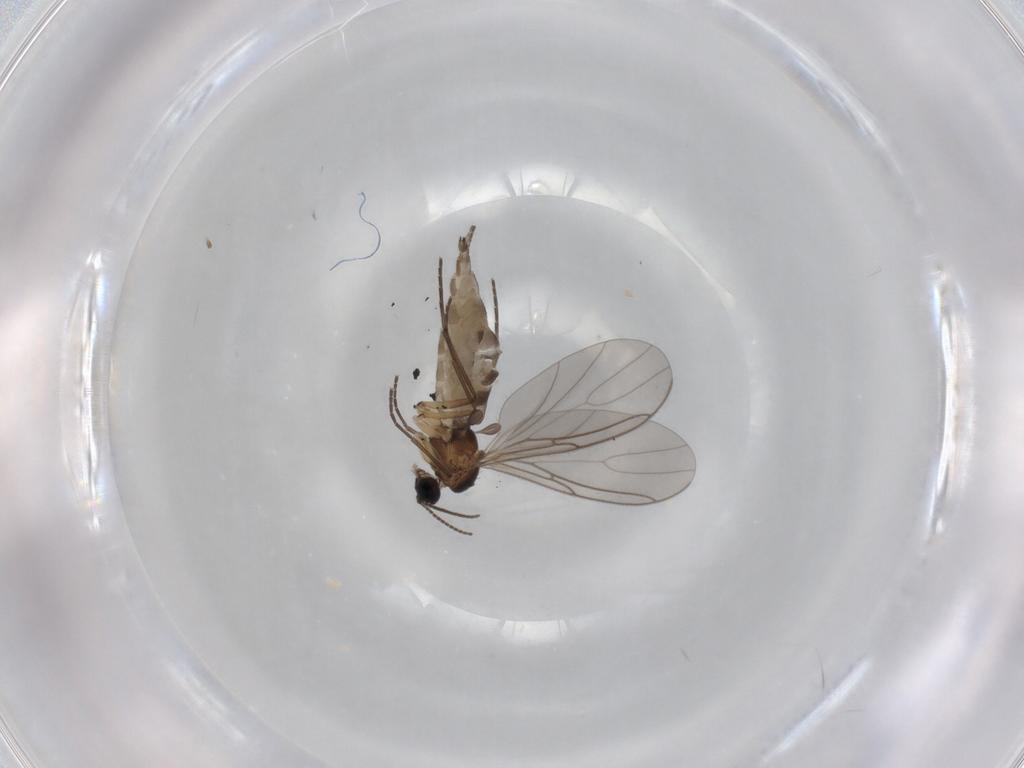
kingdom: Animalia
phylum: Arthropoda
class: Insecta
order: Diptera
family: Sciaridae
